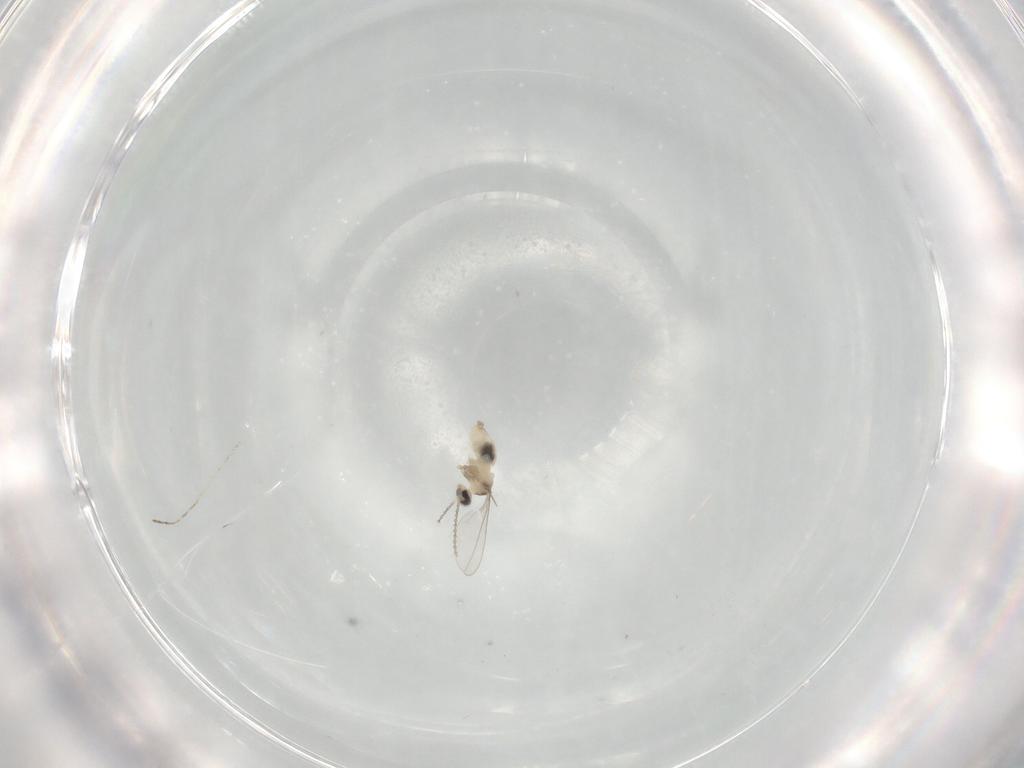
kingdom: Animalia
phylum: Arthropoda
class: Insecta
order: Diptera
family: Cecidomyiidae
